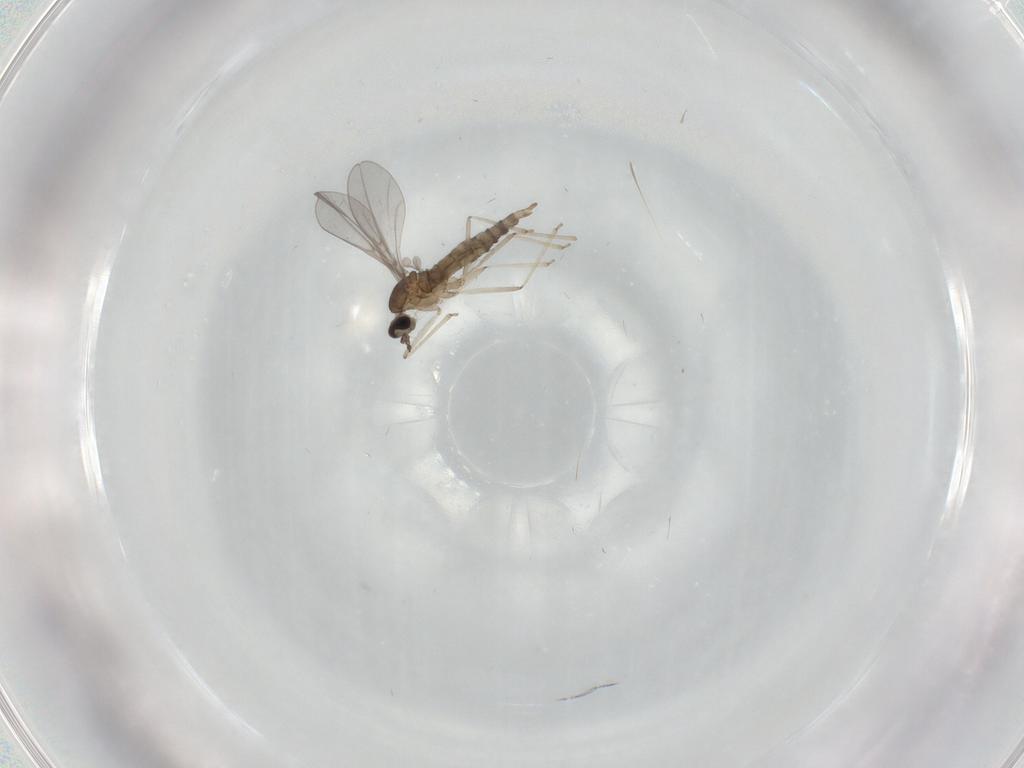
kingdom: Animalia
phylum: Arthropoda
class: Insecta
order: Diptera
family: Cecidomyiidae
